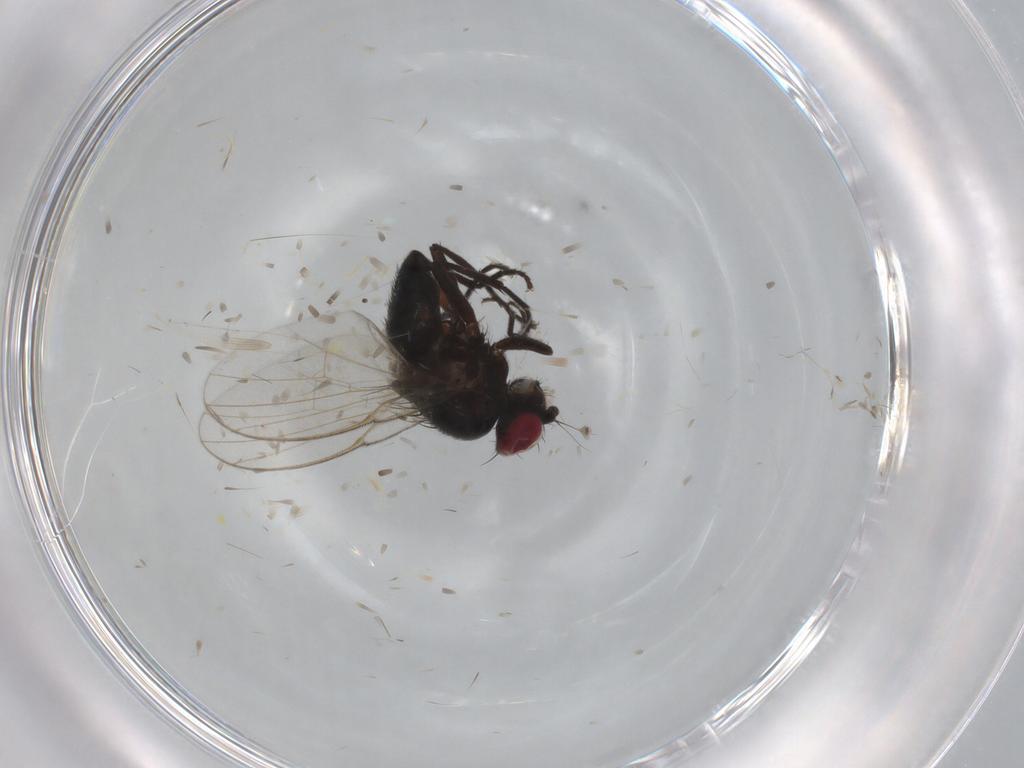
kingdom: Animalia
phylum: Arthropoda
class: Insecta
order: Diptera
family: Agromyzidae
